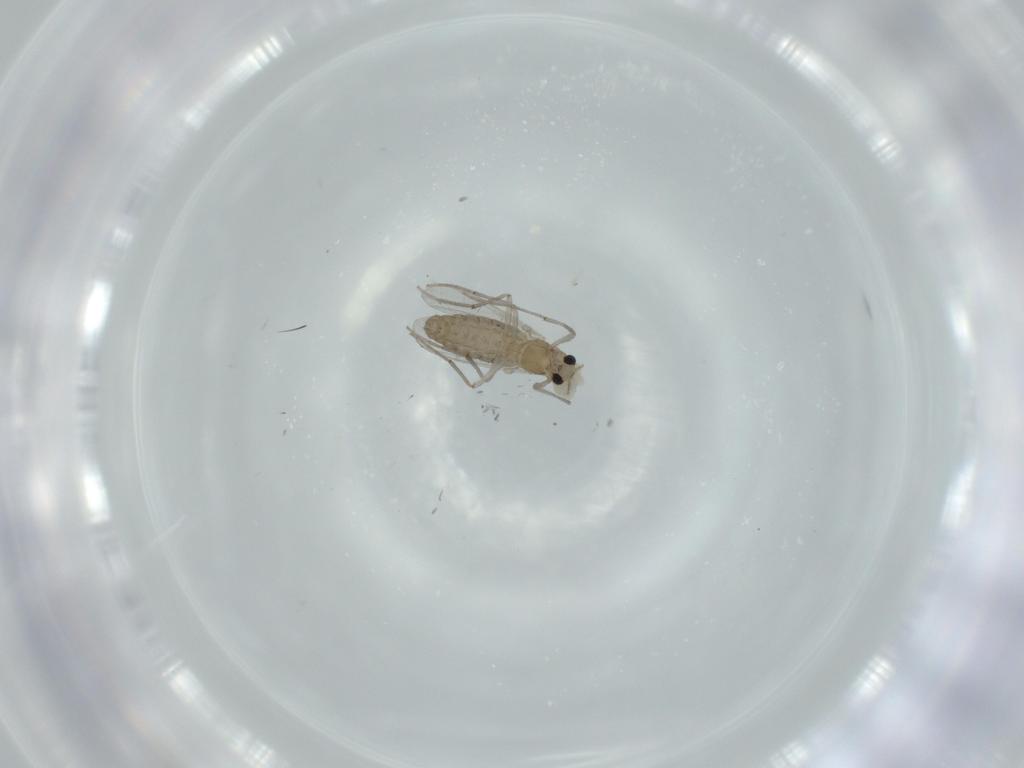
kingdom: Animalia
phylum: Arthropoda
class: Insecta
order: Diptera
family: Chironomidae
